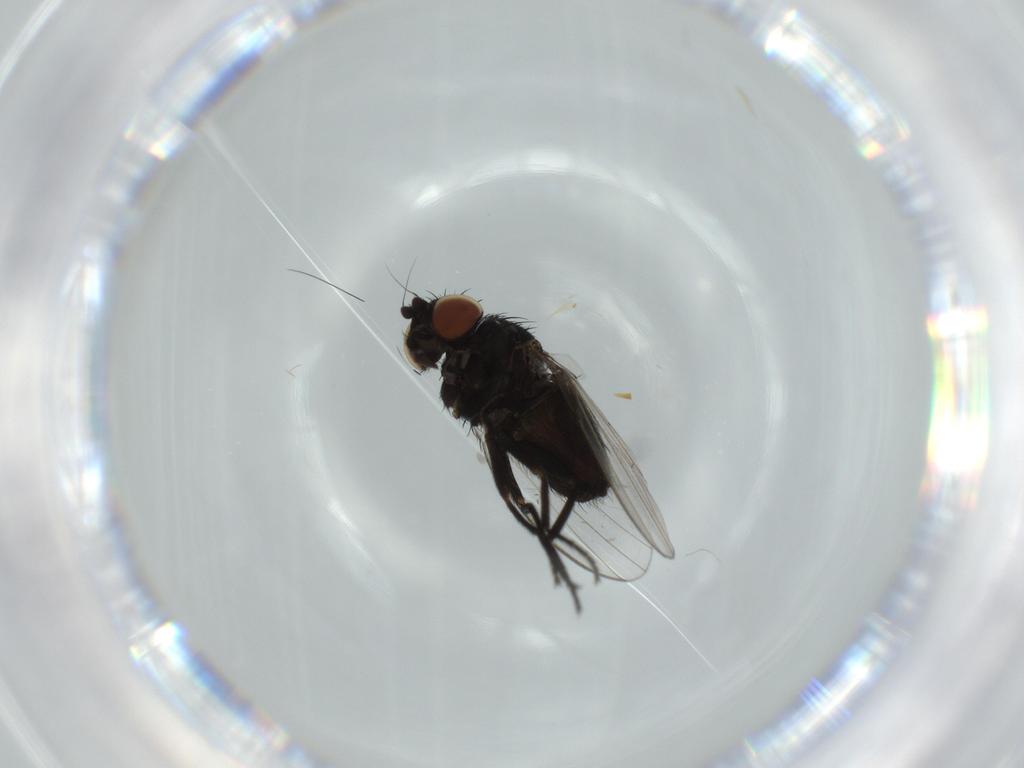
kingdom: Animalia
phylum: Arthropoda
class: Insecta
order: Diptera
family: Milichiidae
